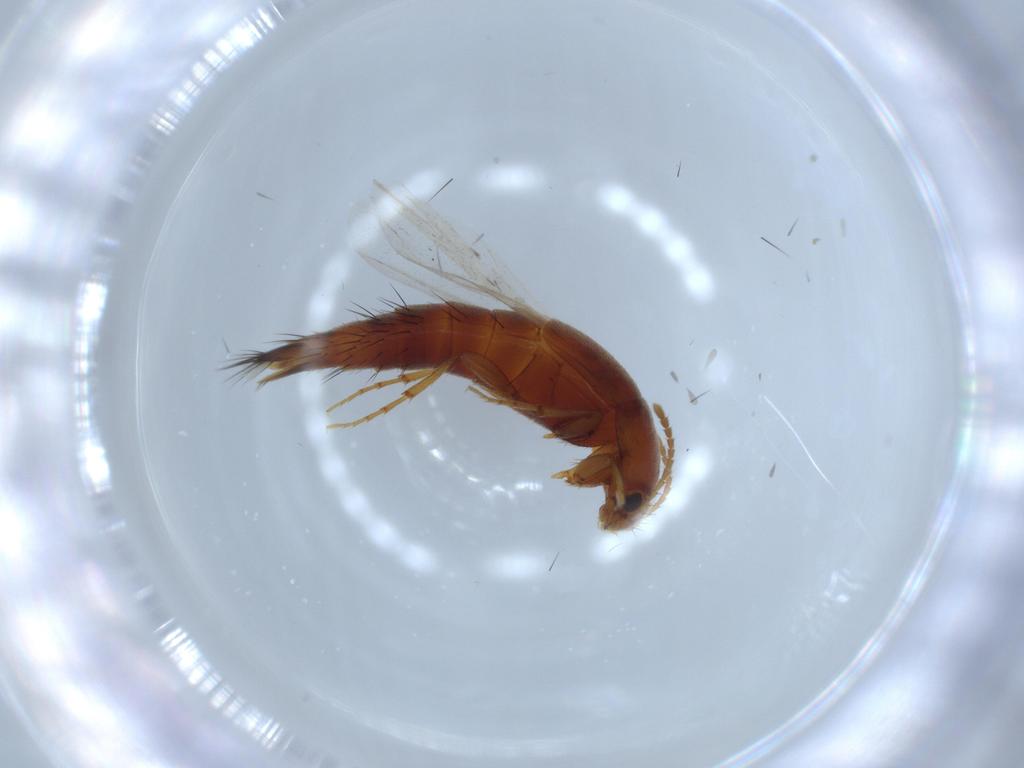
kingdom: Animalia
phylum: Arthropoda
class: Insecta
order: Coleoptera
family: Staphylinidae
